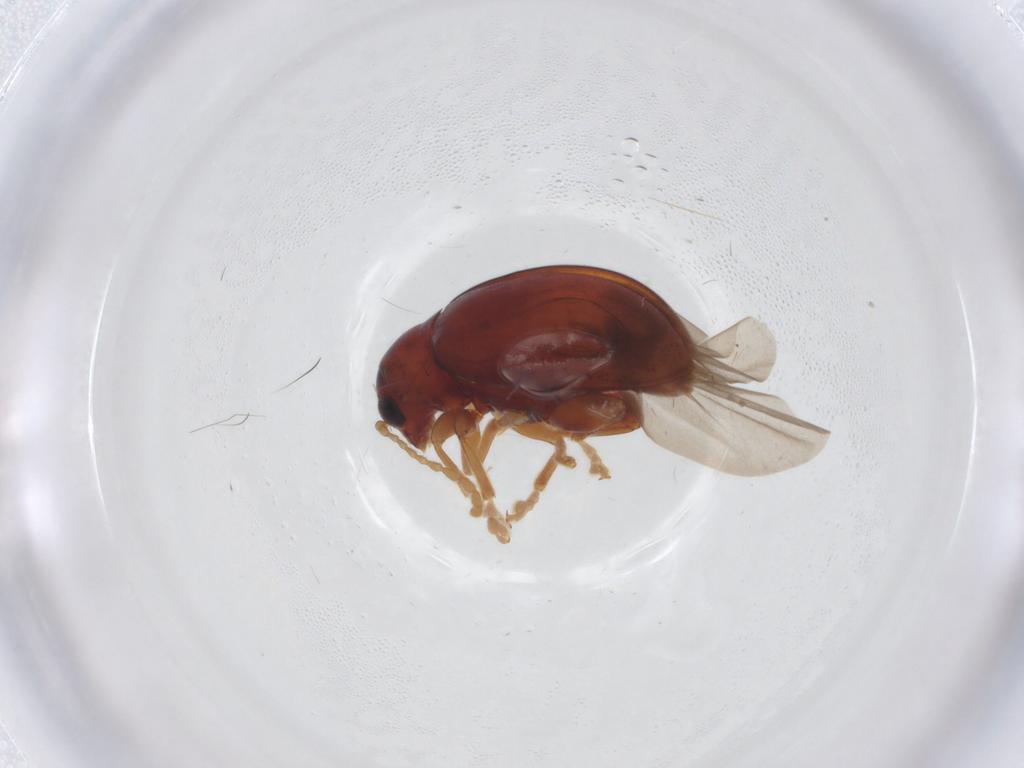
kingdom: Animalia
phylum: Arthropoda
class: Insecta
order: Coleoptera
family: Chrysomelidae
